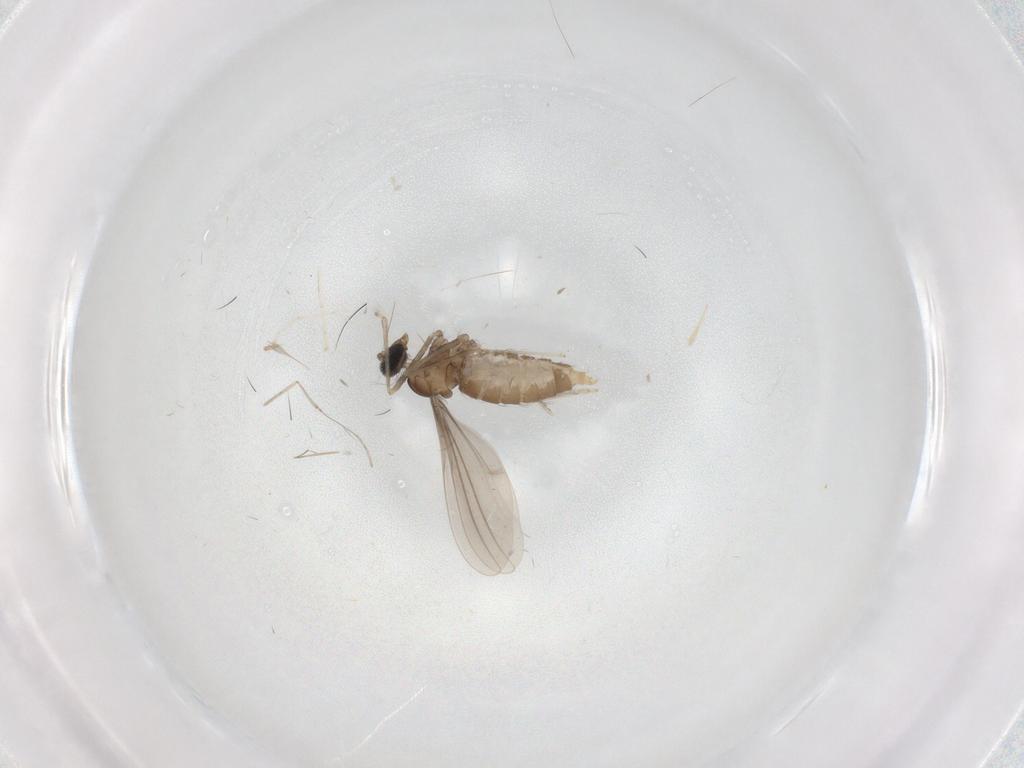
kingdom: Animalia
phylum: Arthropoda
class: Insecta
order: Diptera
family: Cecidomyiidae
